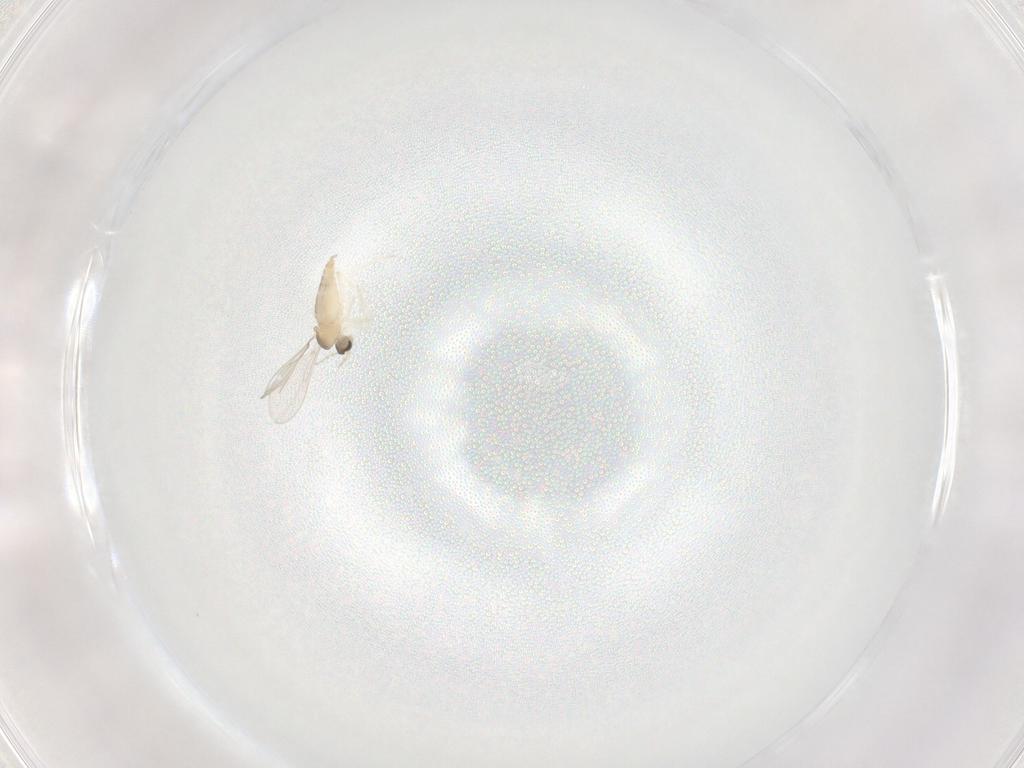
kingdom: Animalia
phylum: Arthropoda
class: Insecta
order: Diptera
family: Cecidomyiidae
